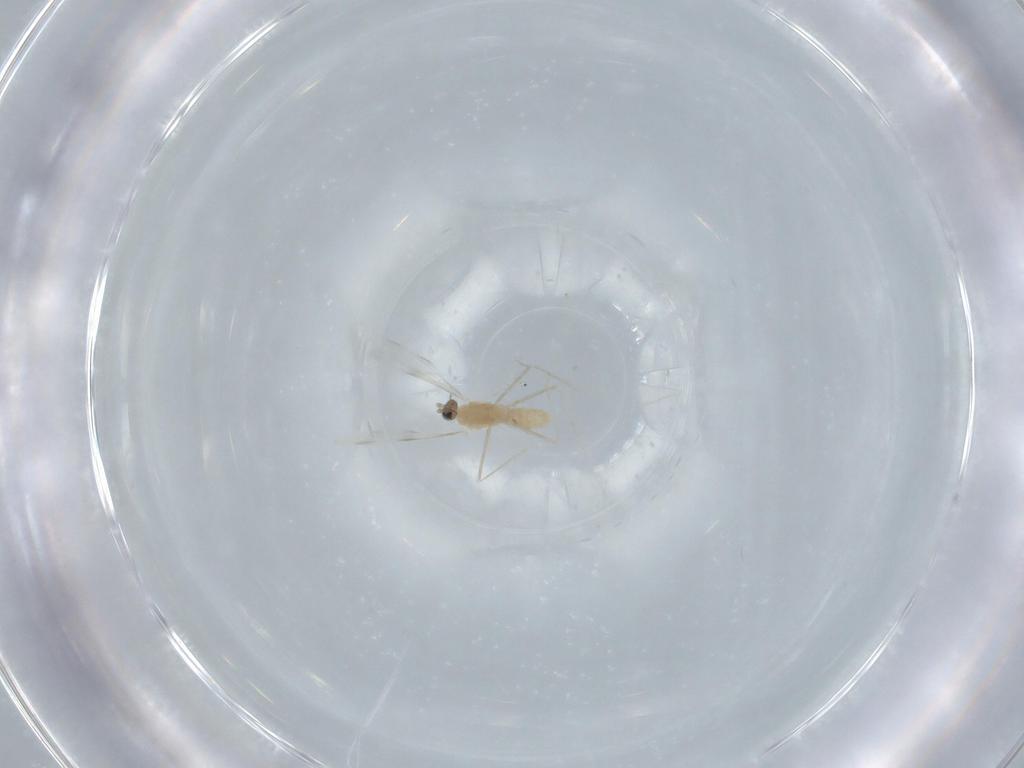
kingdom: Animalia
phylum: Arthropoda
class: Insecta
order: Diptera
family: Cecidomyiidae
